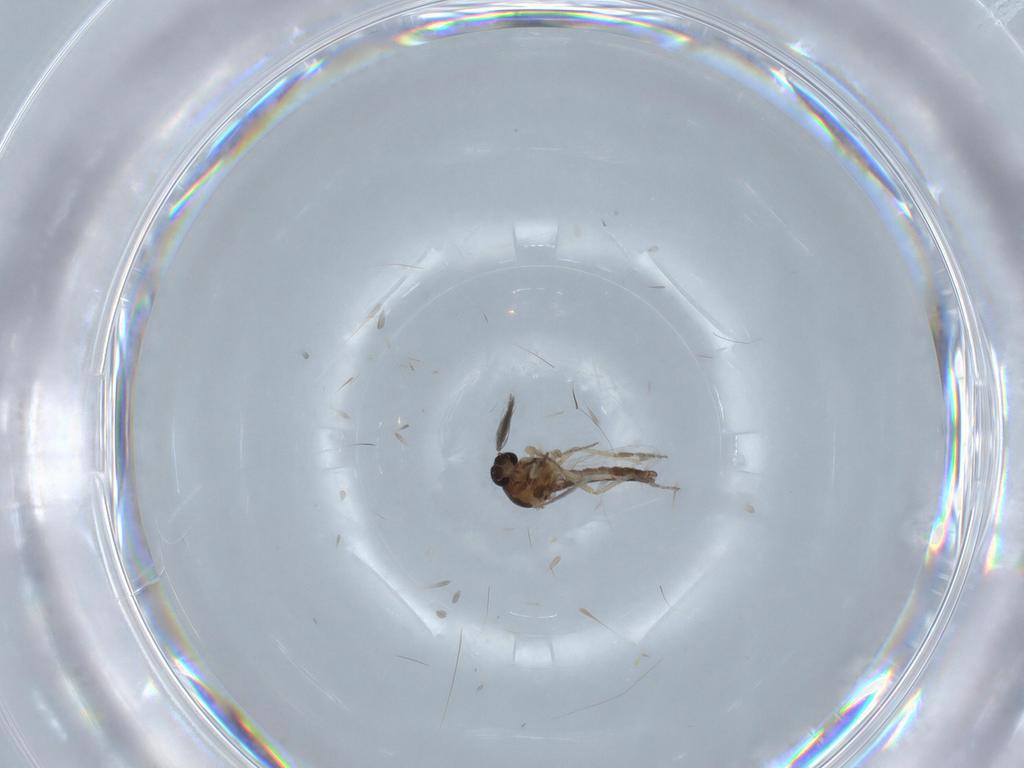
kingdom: Animalia
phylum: Arthropoda
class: Insecta
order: Diptera
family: Ceratopogonidae
